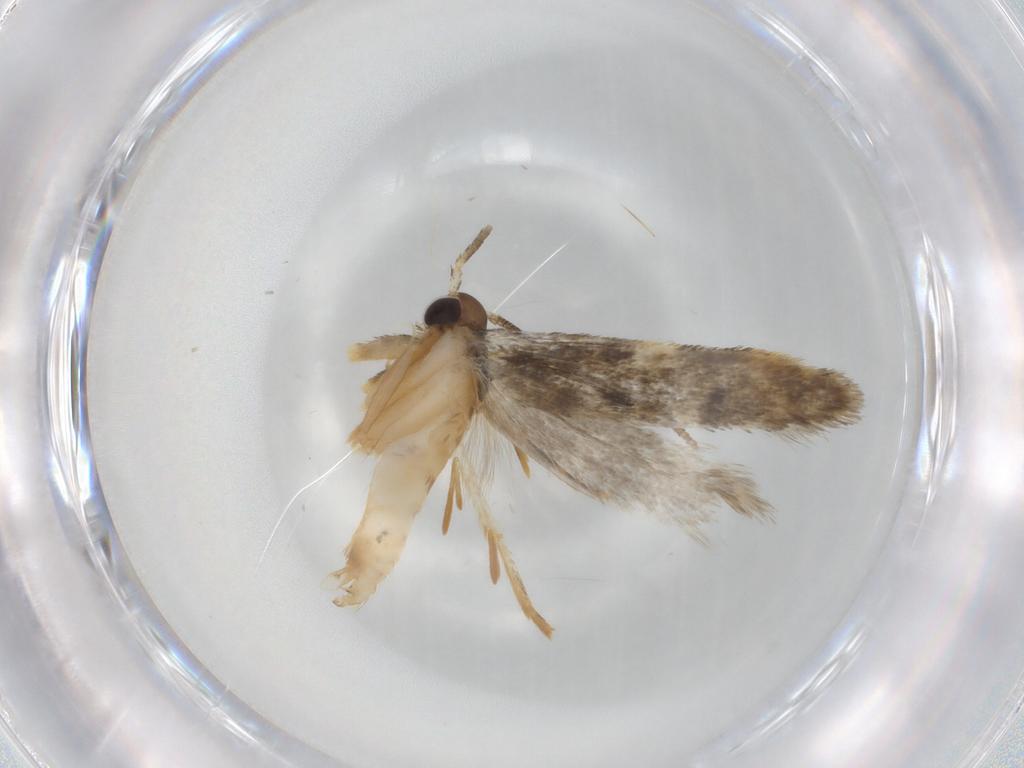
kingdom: Animalia
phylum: Arthropoda
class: Insecta
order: Lepidoptera
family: Autostichidae
